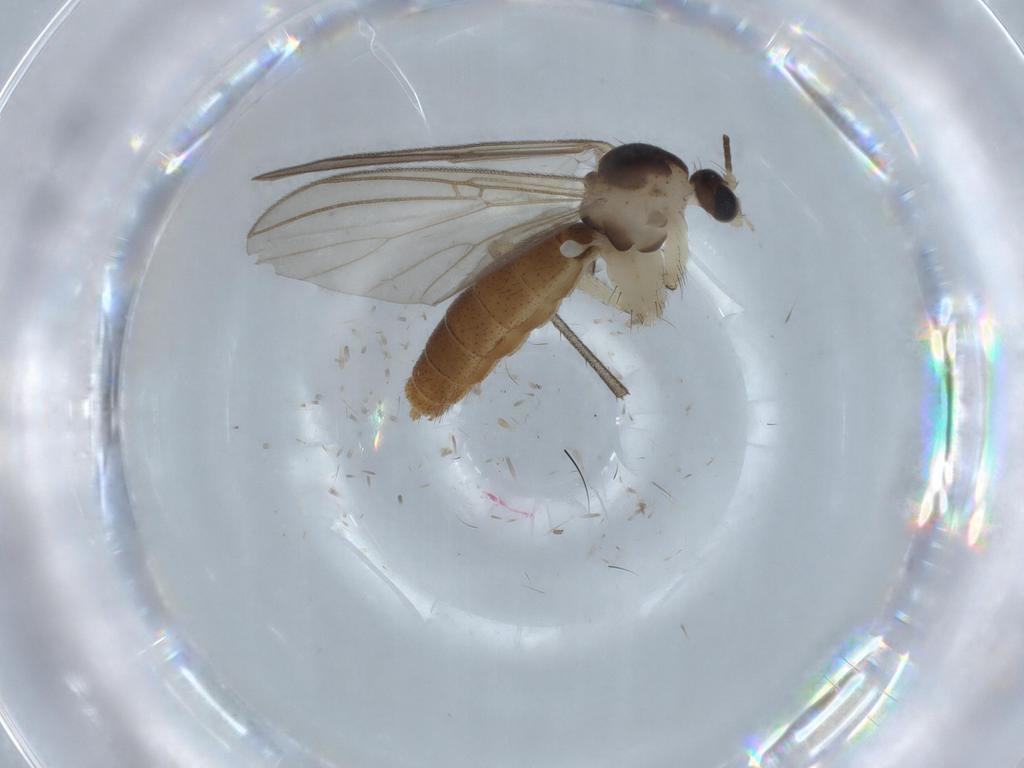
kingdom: Animalia
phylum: Arthropoda
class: Insecta
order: Diptera
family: Mycetophilidae
